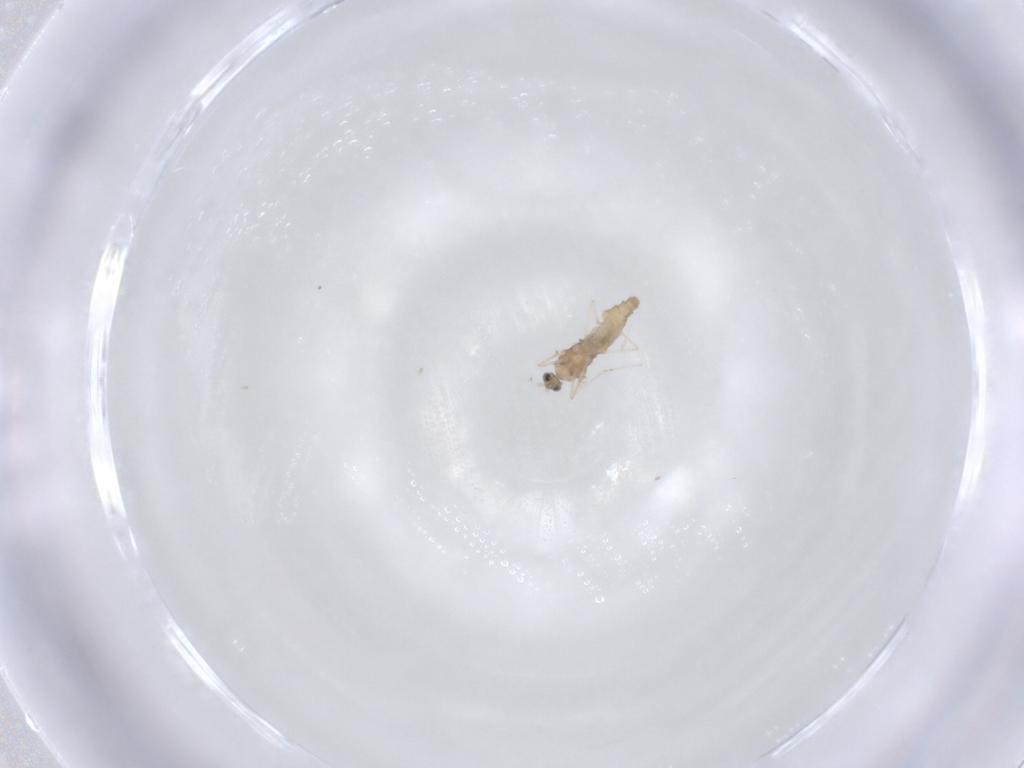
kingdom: Animalia
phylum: Arthropoda
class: Insecta
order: Diptera
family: Cecidomyiidae
